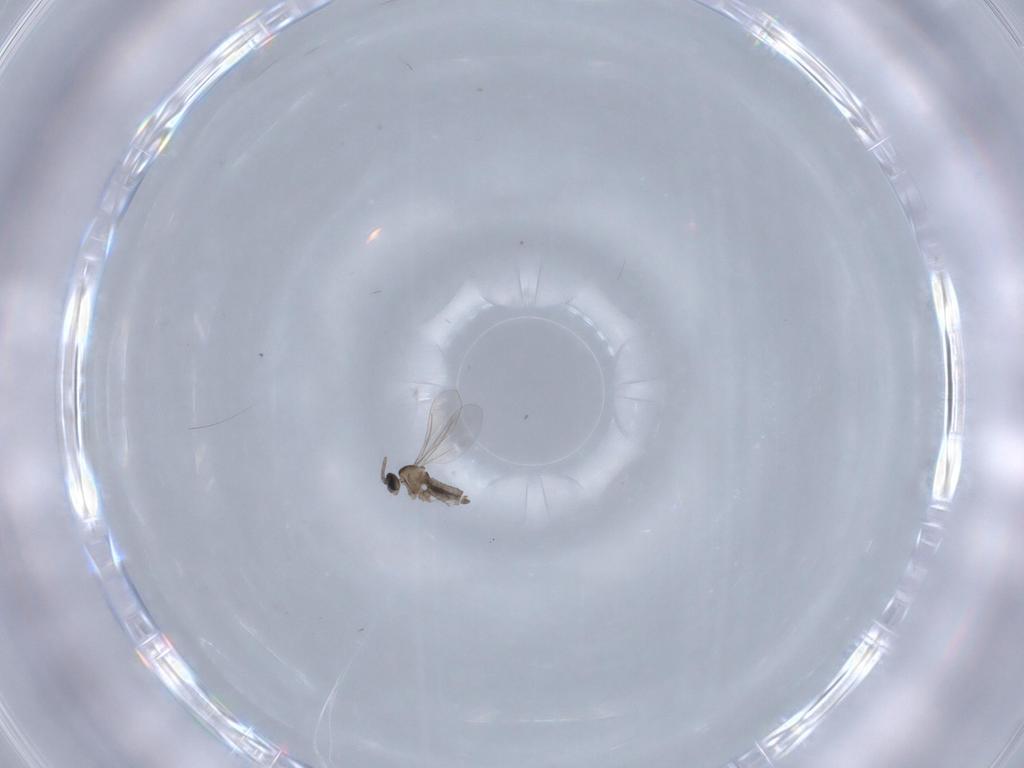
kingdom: Animalia
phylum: Arthropoda
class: Insecta
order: Diptera
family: Cecidomyiidae
